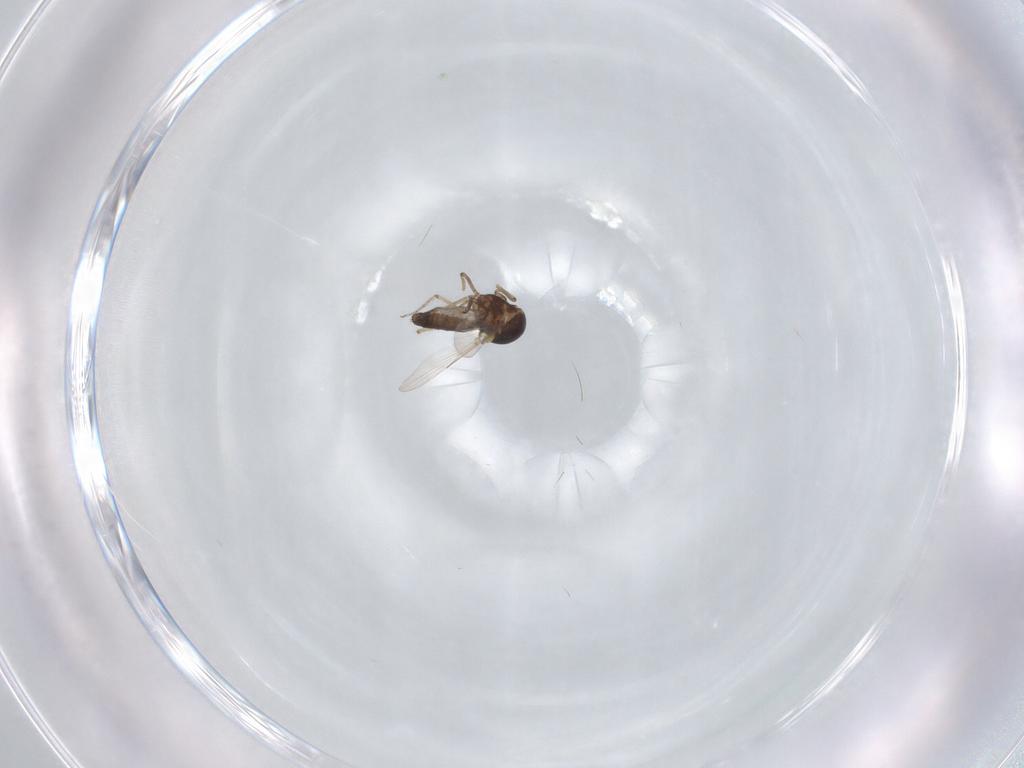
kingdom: Animalia
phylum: Arthropoda
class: Insecta
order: Diptera
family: Ceratopogonidae
